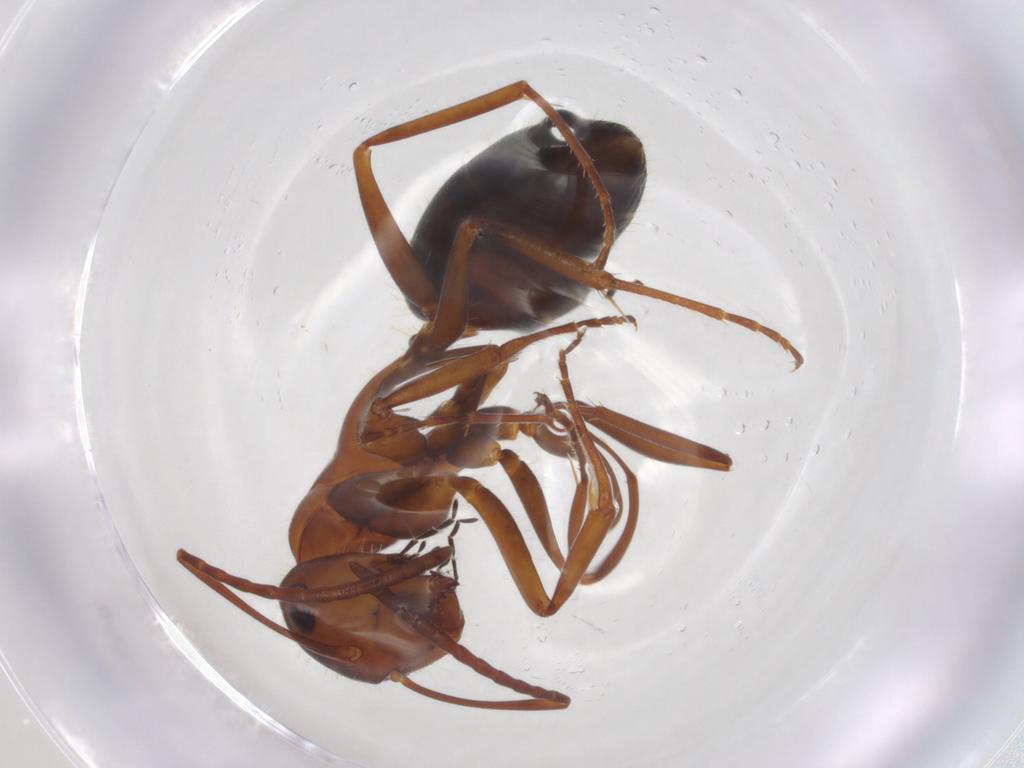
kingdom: Animalia
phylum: Arthropoda
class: Insecta
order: Hymenoptera
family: Formicidae
